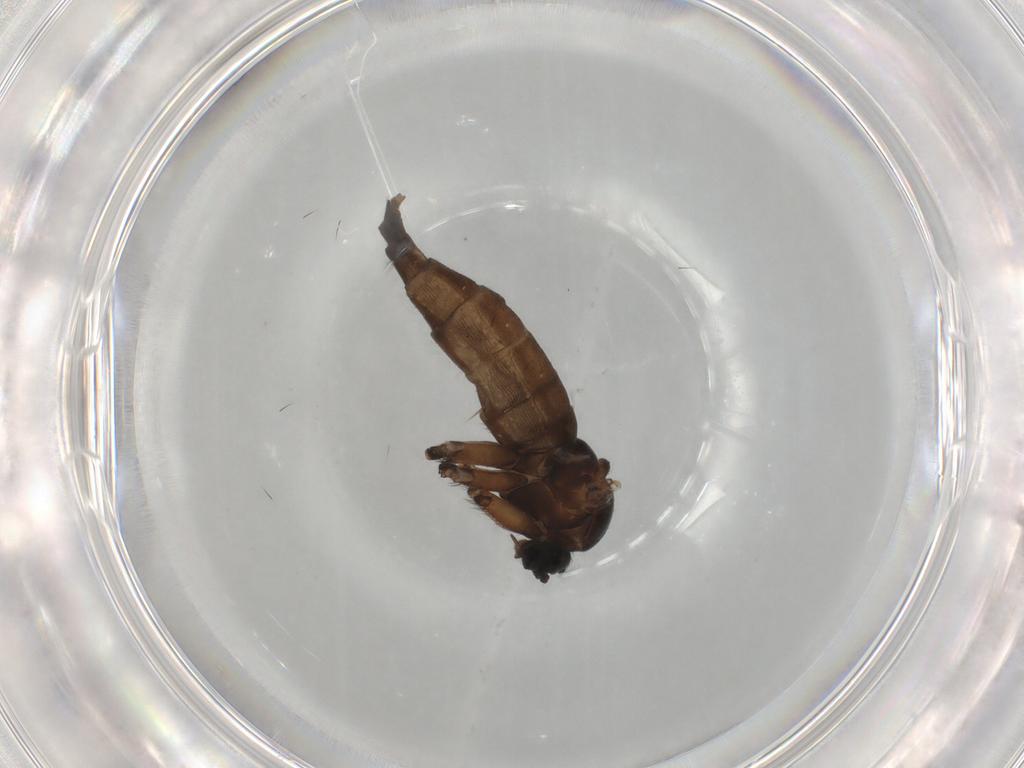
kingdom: Animalia
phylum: Arthropoda
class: Insecta
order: Diptera
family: Sciaridae
